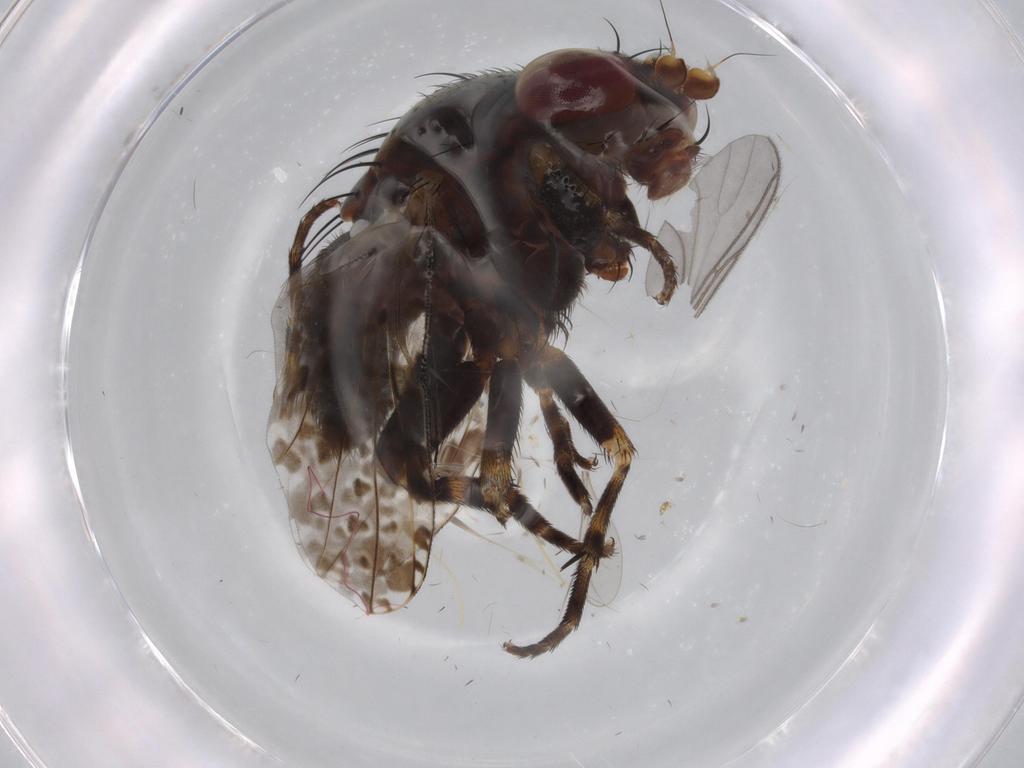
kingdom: Animalia
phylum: Arthropoda
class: Insecta
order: Diptera
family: Odiniidae
